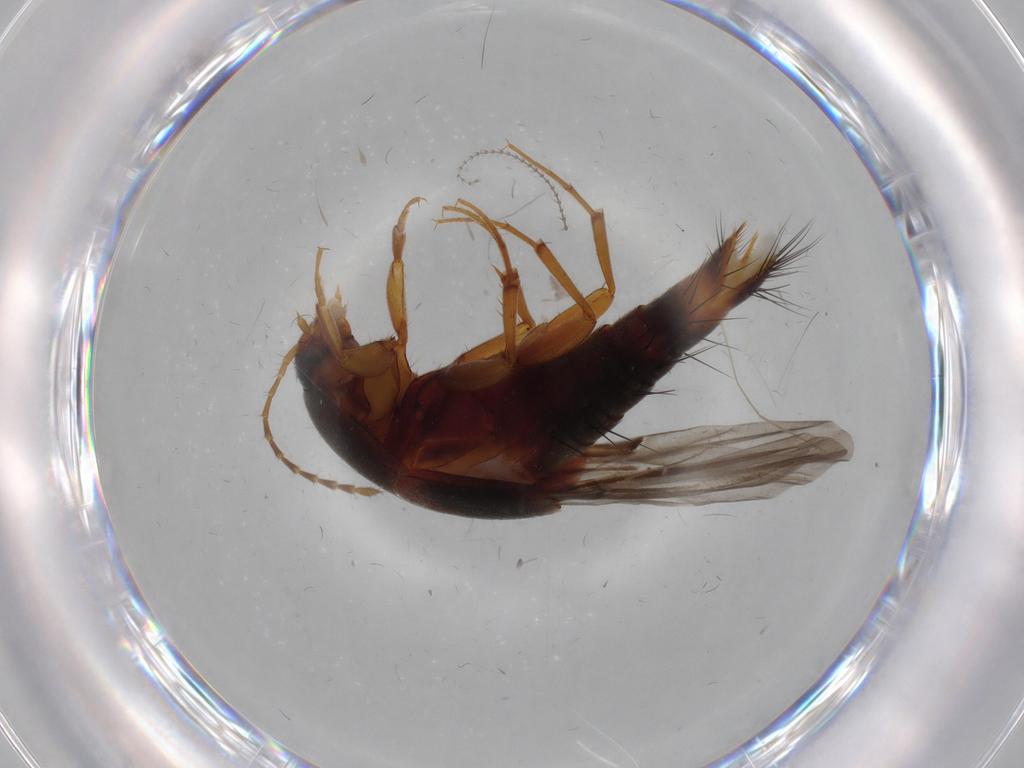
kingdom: Animalia
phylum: Arthropoda
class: Insecta
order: Coleoptera
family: Staphylinidae
